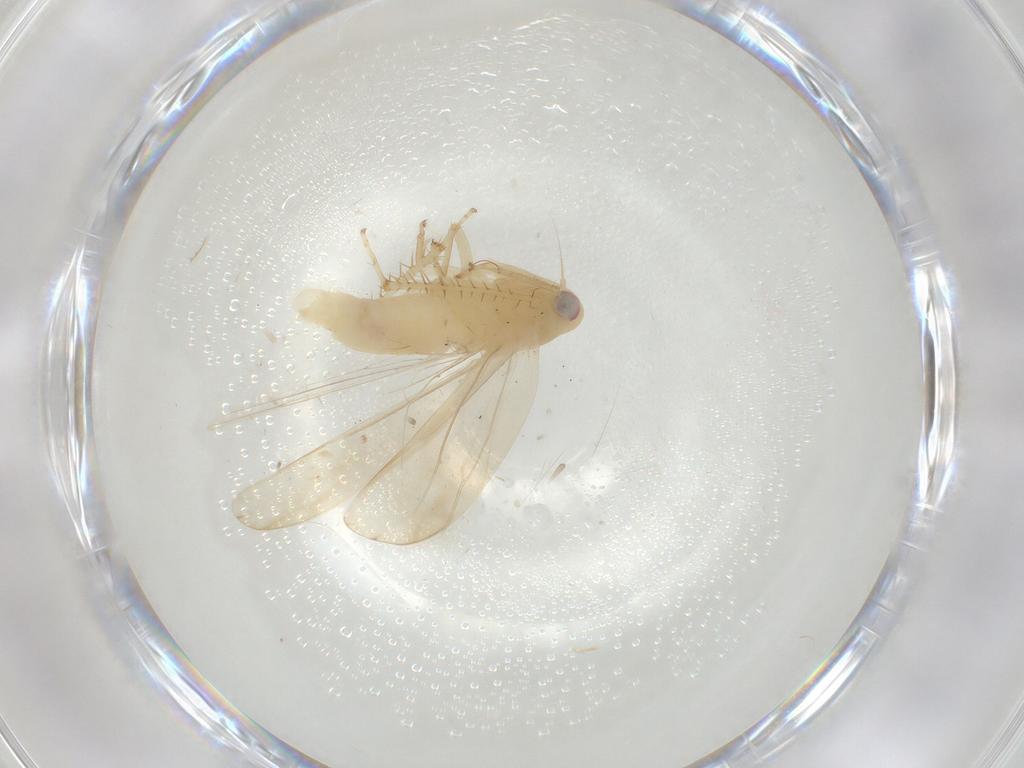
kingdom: Animalia
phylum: Arthropoda
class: Insecta
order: Hemiptera
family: Cicadellidae
